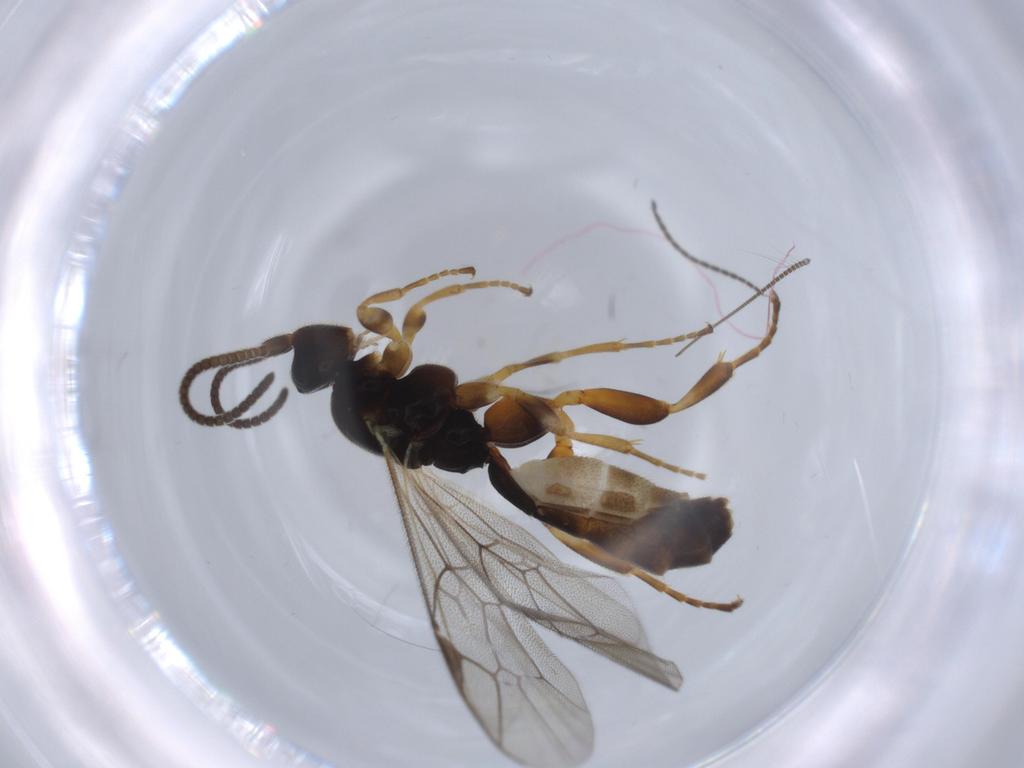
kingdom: Animalia
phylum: Arthropoda
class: Insecta
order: Hymenoptera
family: Ichneumonidae
